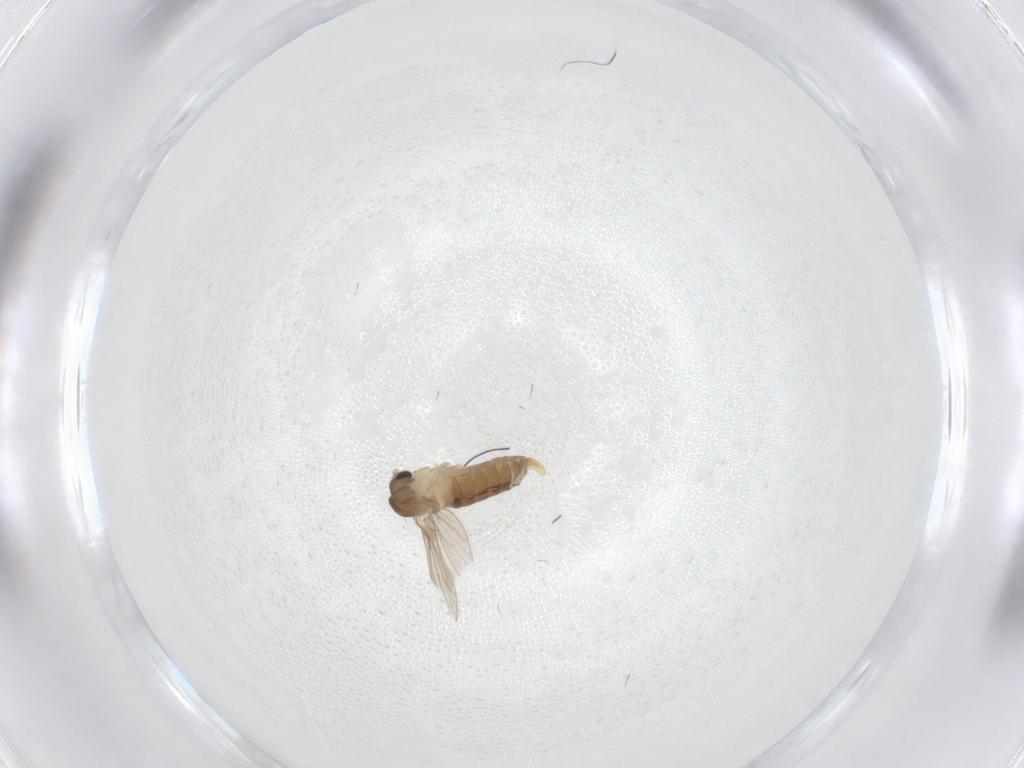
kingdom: Animalia
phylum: Arthropoda
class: Insecta
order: Diptera
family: Psychodidae
